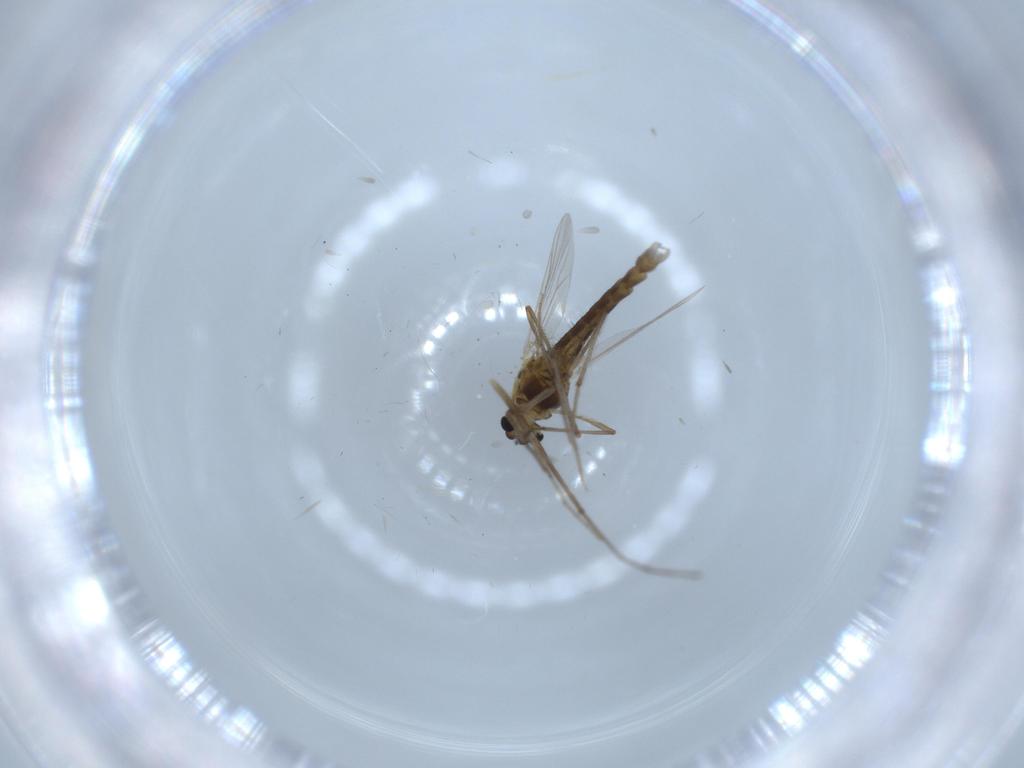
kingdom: Animalia
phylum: Arthropoda
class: Insecta
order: Diptera
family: Chironomidae
